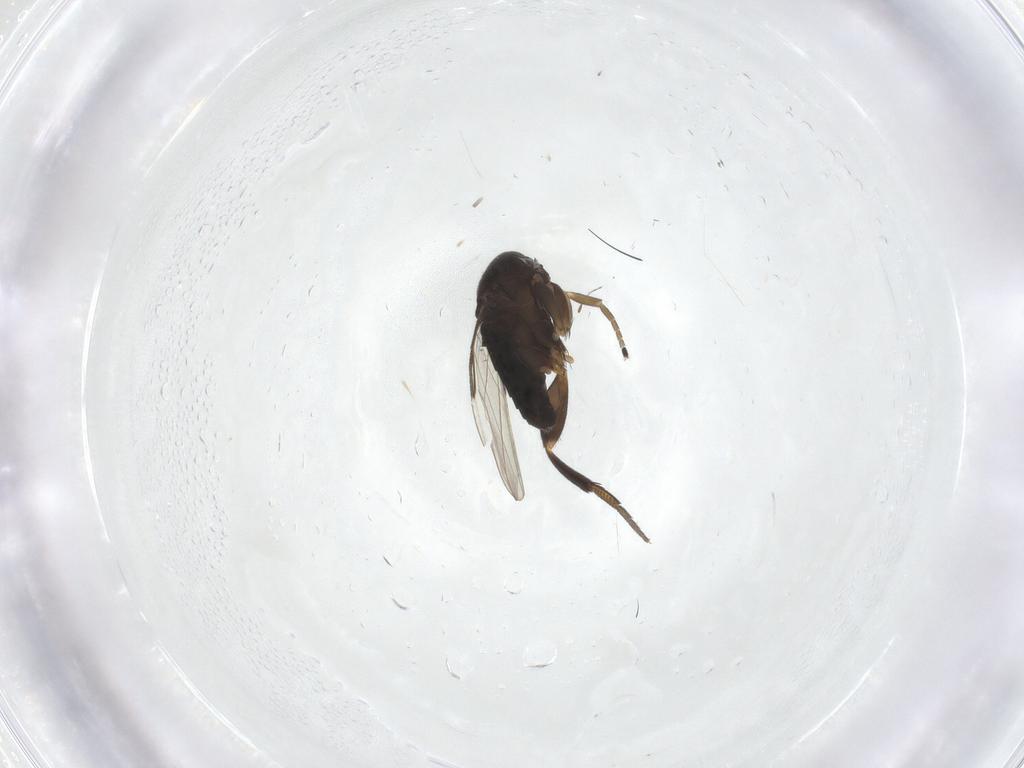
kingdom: Animalia
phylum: Arthropoda
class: Insecta
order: Diptera
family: Phoridae
